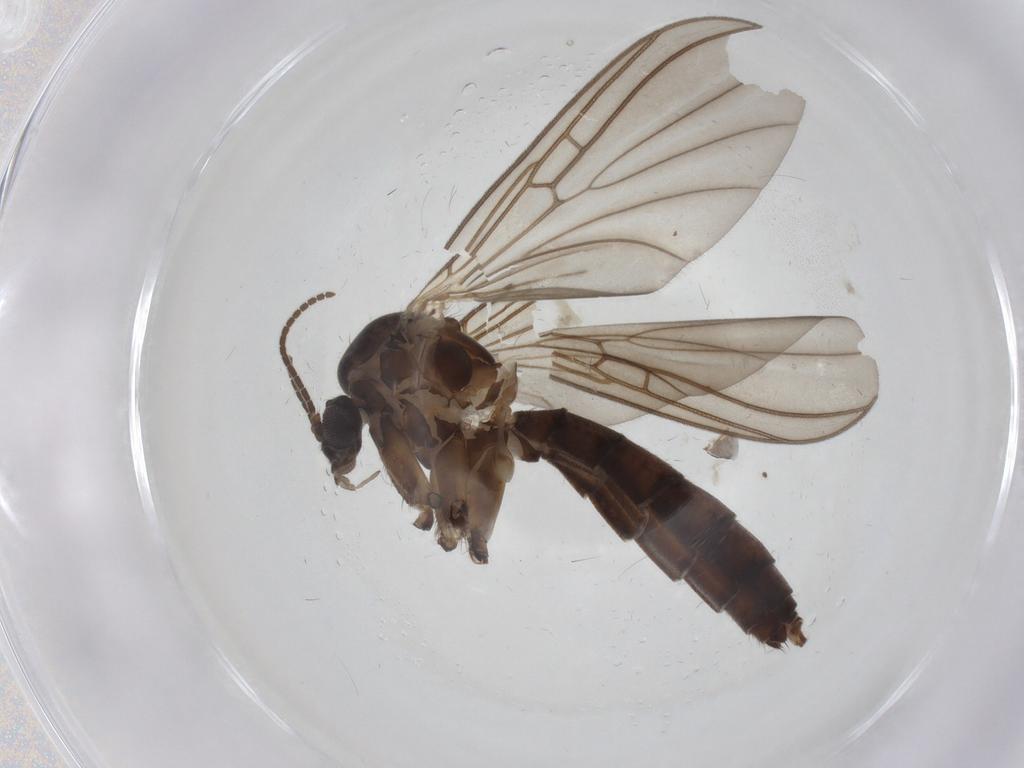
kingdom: Animalia
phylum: Arthropoda
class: Insecta
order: Diptera
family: Mycetophilidae
